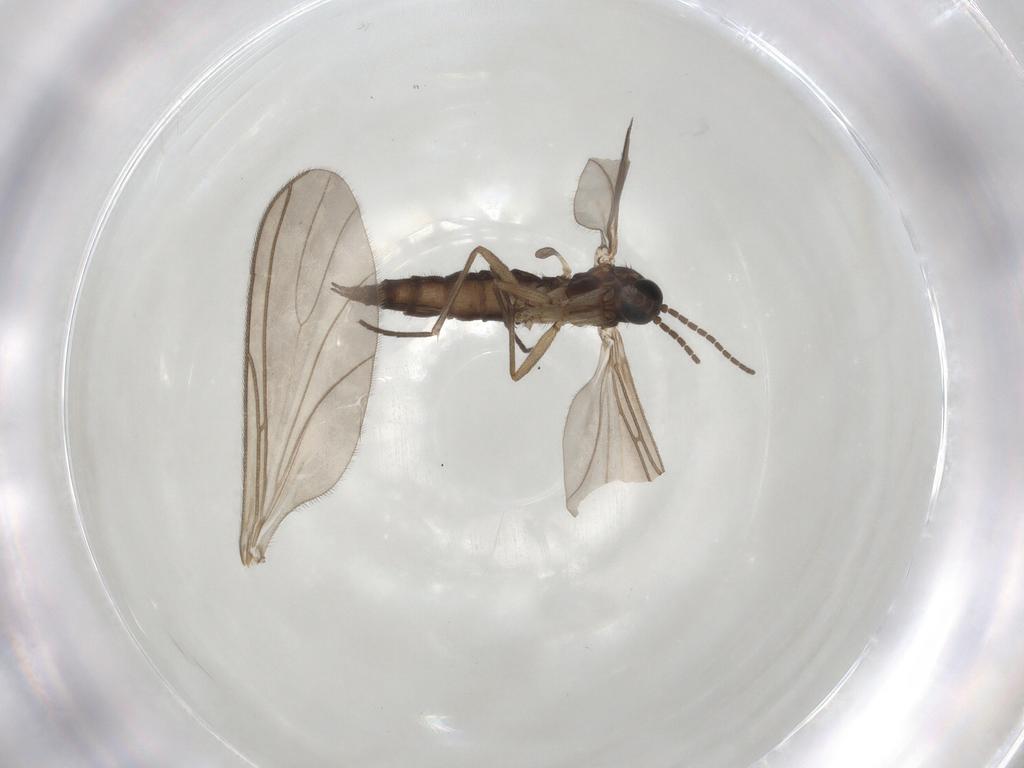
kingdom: Animalia
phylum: Arthropoda
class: Insecta
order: Diptera
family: Sciaridae
